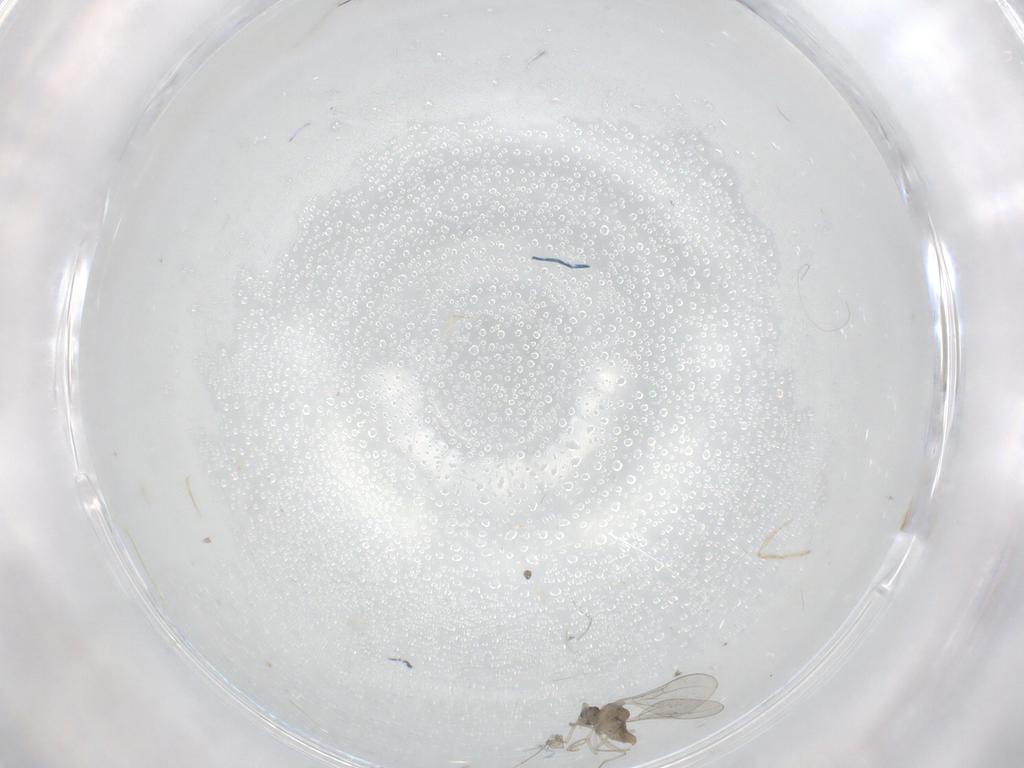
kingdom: Animalia
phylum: Arthropoda
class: Insecta
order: Diptera
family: Cecidomyiidae
